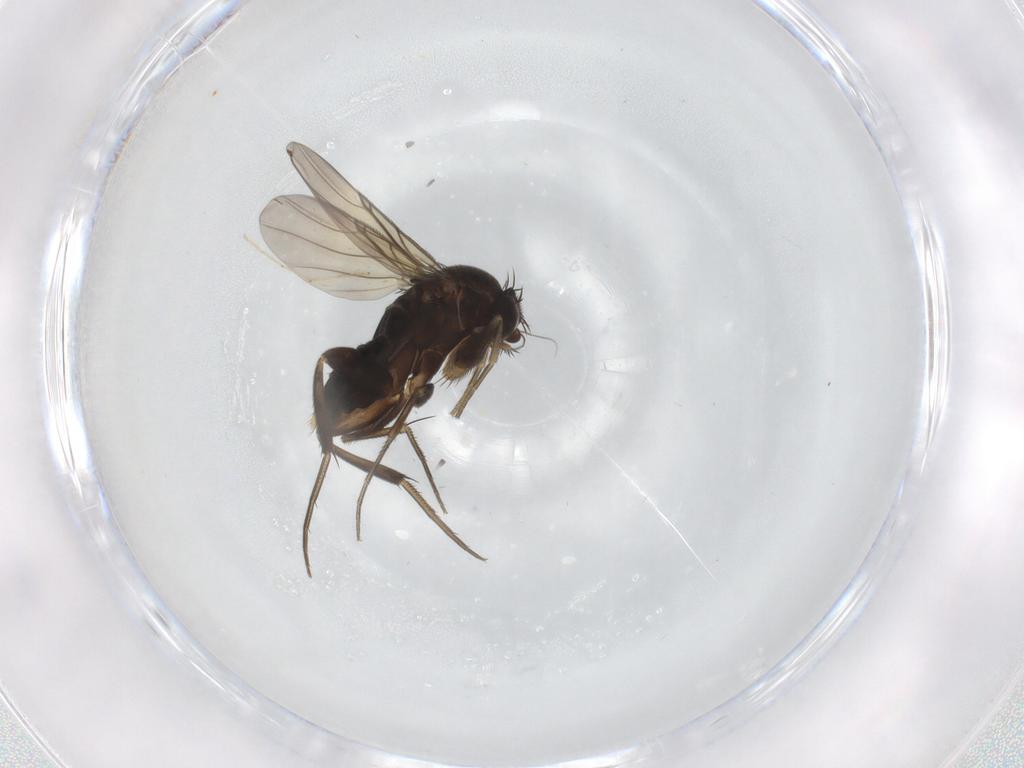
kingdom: Animalia
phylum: Arthropoda
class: Insecta
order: Diptera
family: Phoridae
